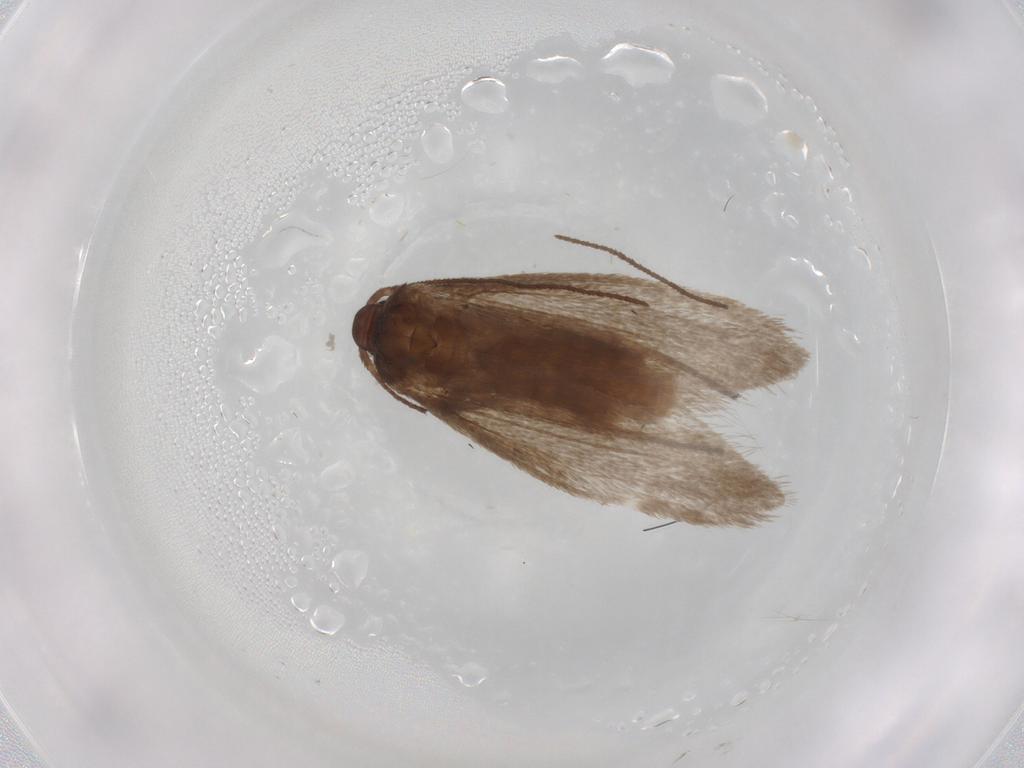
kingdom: Animalia
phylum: Arthropoda
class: Insecta
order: Lepidoptera
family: Limacodidae
